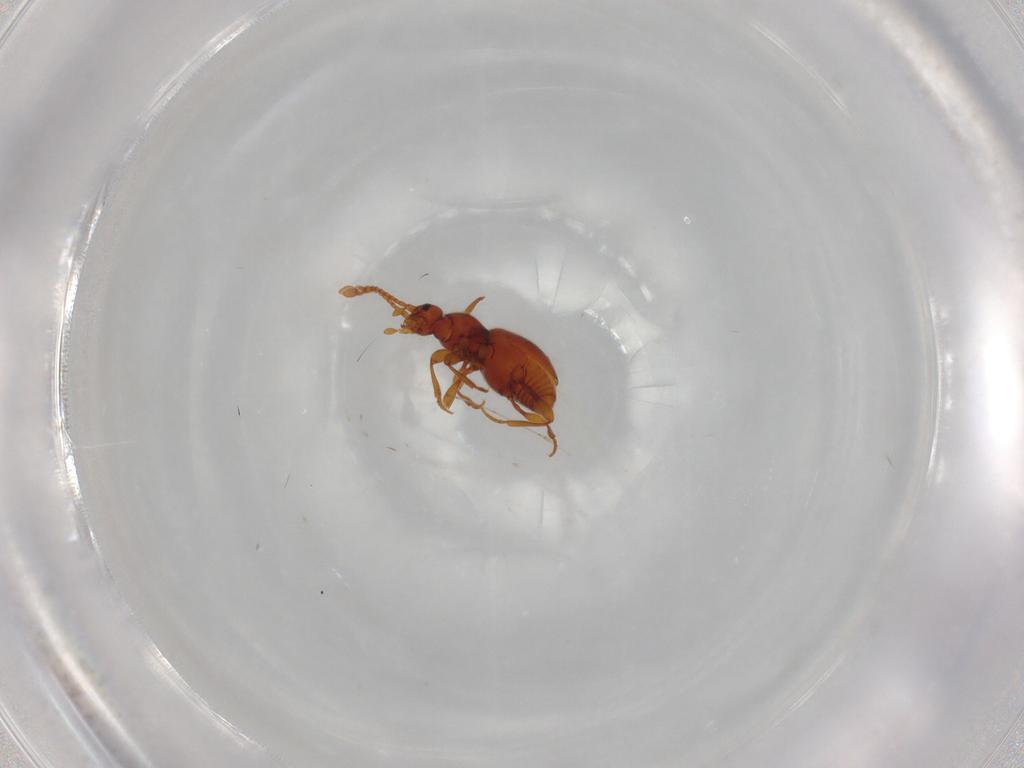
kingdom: Animalia
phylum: Arthropoda
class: Insecta
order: Coleoptera
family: Staphylinidae
